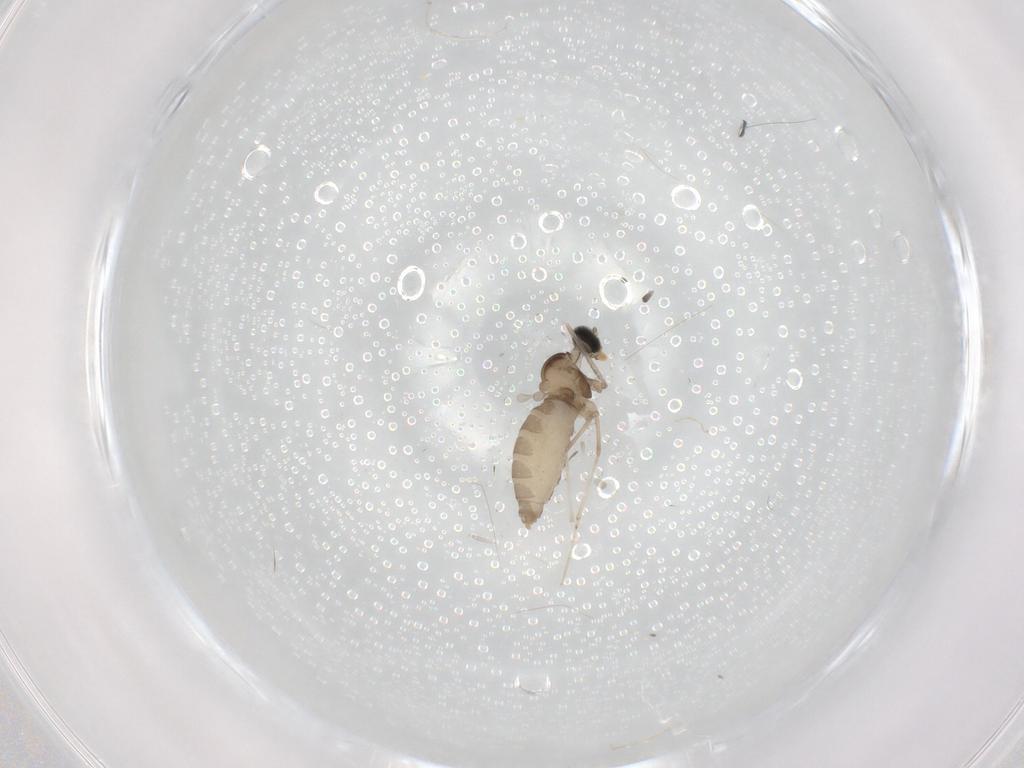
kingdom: Animalia
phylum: Arthropoda
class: Insecta
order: Diptera
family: Cecidomyiidae
